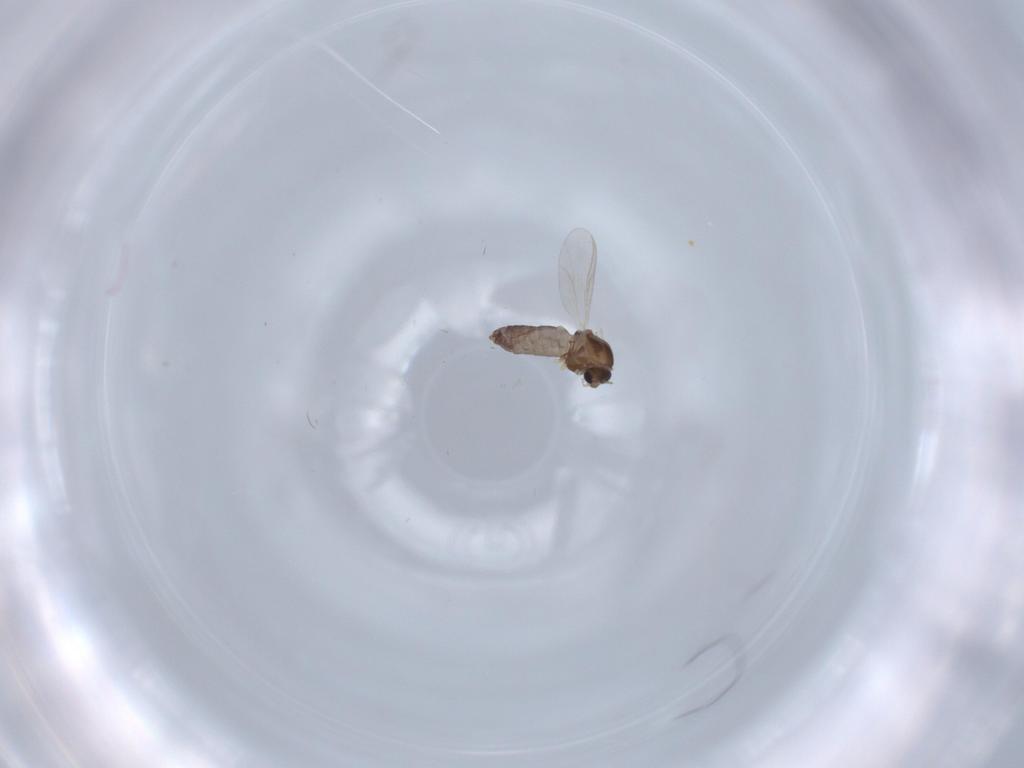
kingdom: Animalia
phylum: Arthropoda
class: Insecta
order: Diptera
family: Chironomidae
